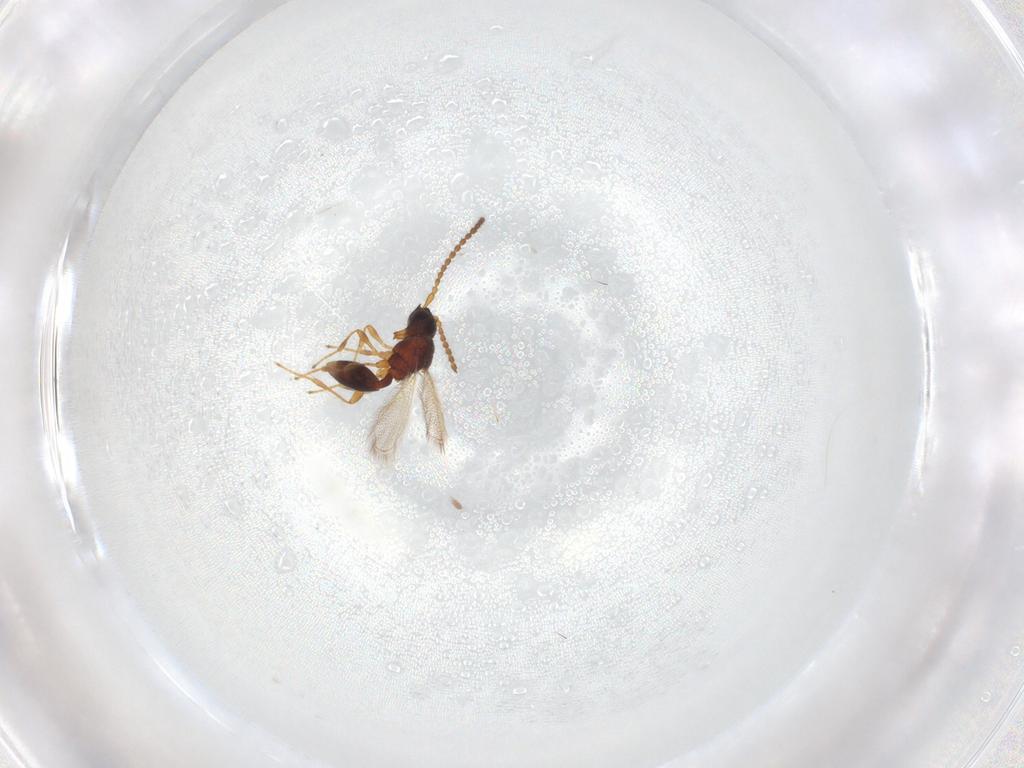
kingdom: Animalia
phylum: Arthropoda
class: Insecta
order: Hymenoptera
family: Diapriidae
